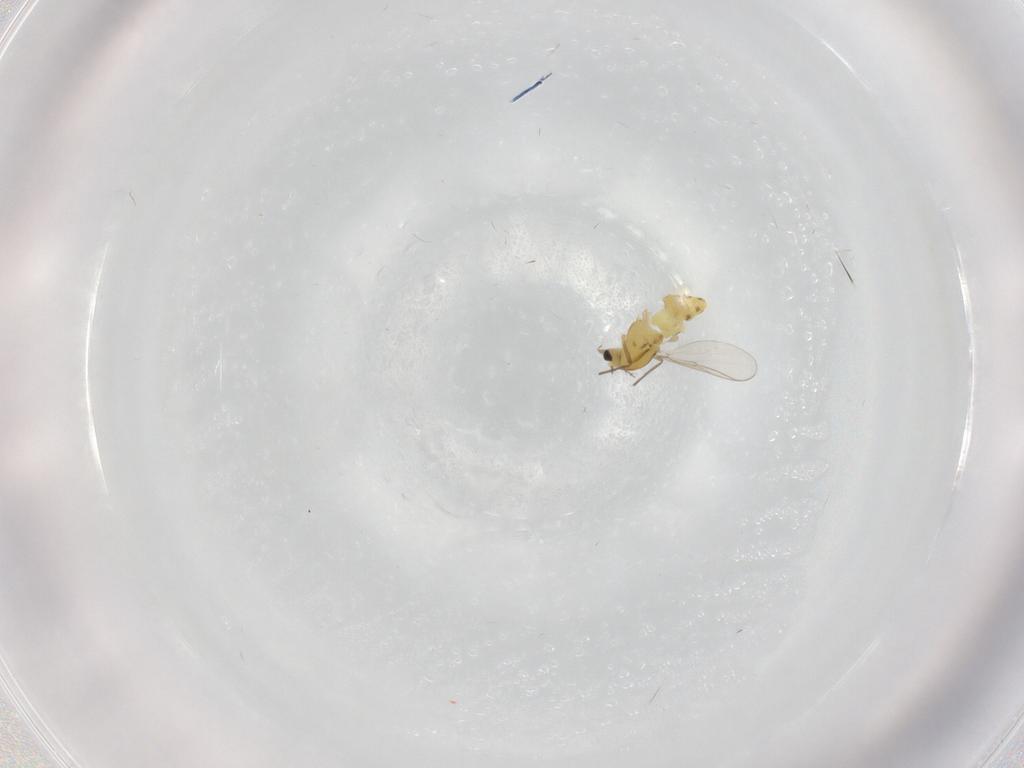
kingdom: Animalia
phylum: Arthropoda
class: Insecta
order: Diptera
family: Chironomidae
